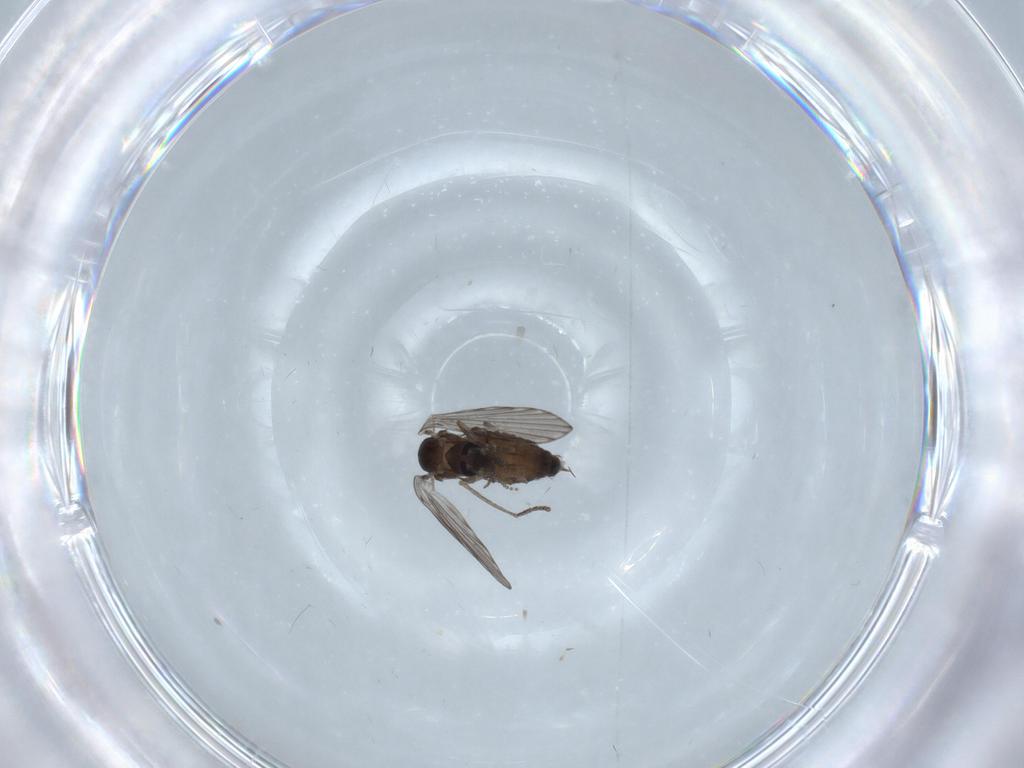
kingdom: Animalia
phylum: Arthropoda
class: Insecta
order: Diptera
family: Psychodidae
